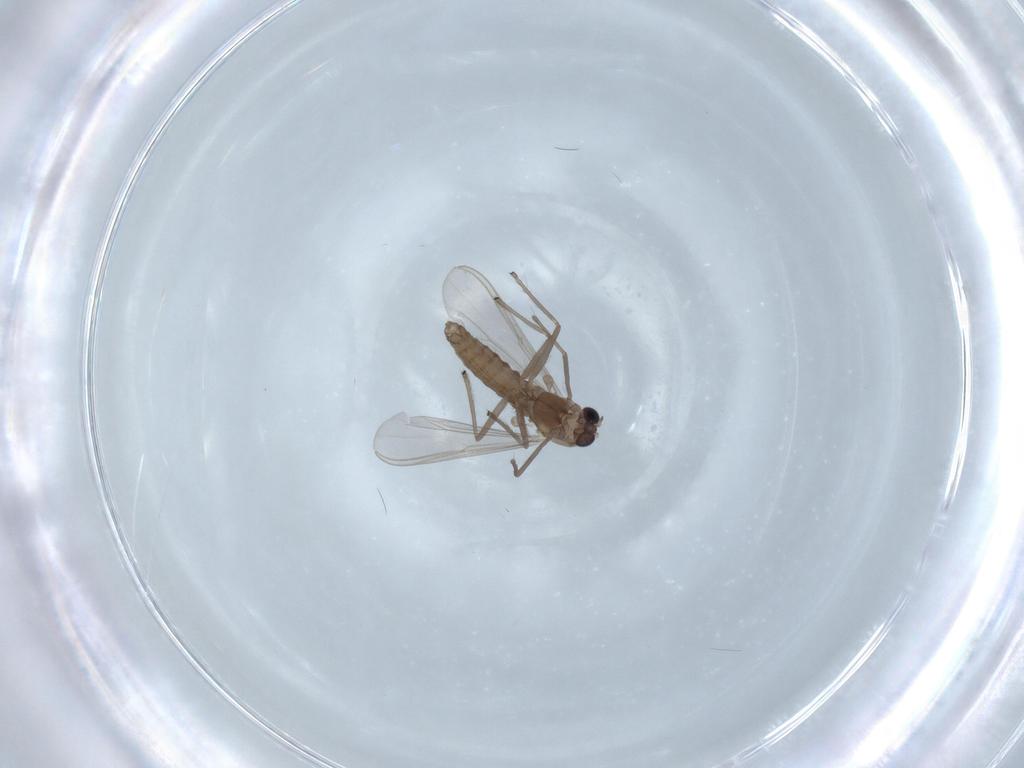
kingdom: Animalia
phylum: Arthropoda
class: Insecta
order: Diptera
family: Chironomidae
